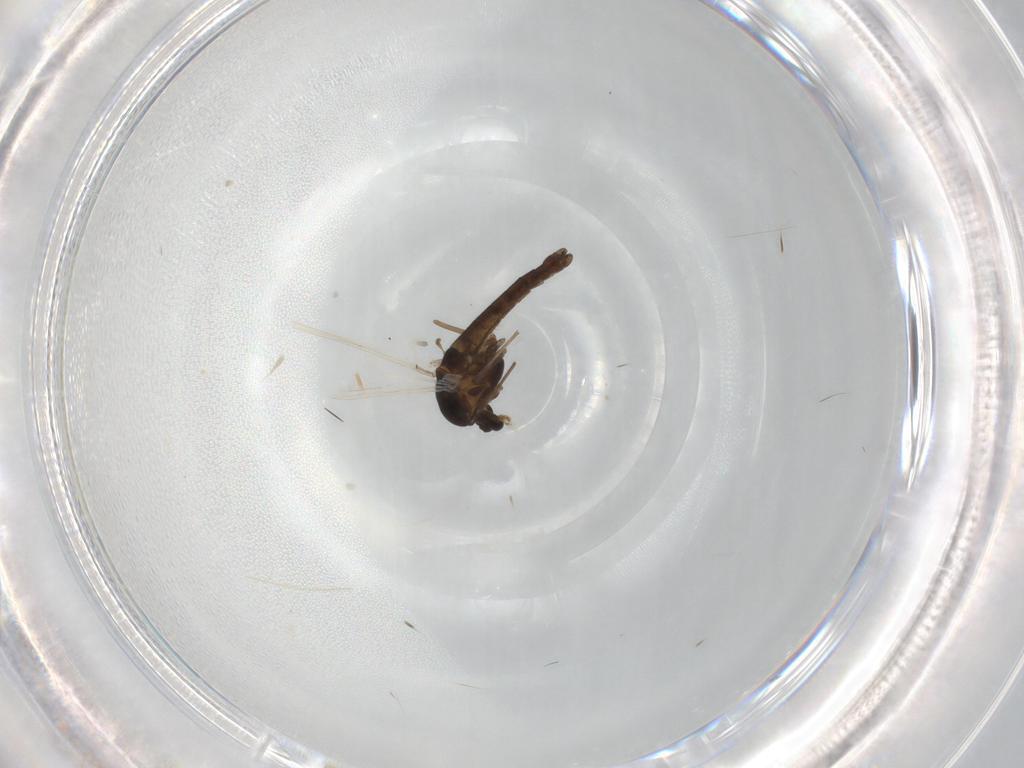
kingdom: Animalia
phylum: Arthropoda
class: Insecta
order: Diptera
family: Chironomidae
